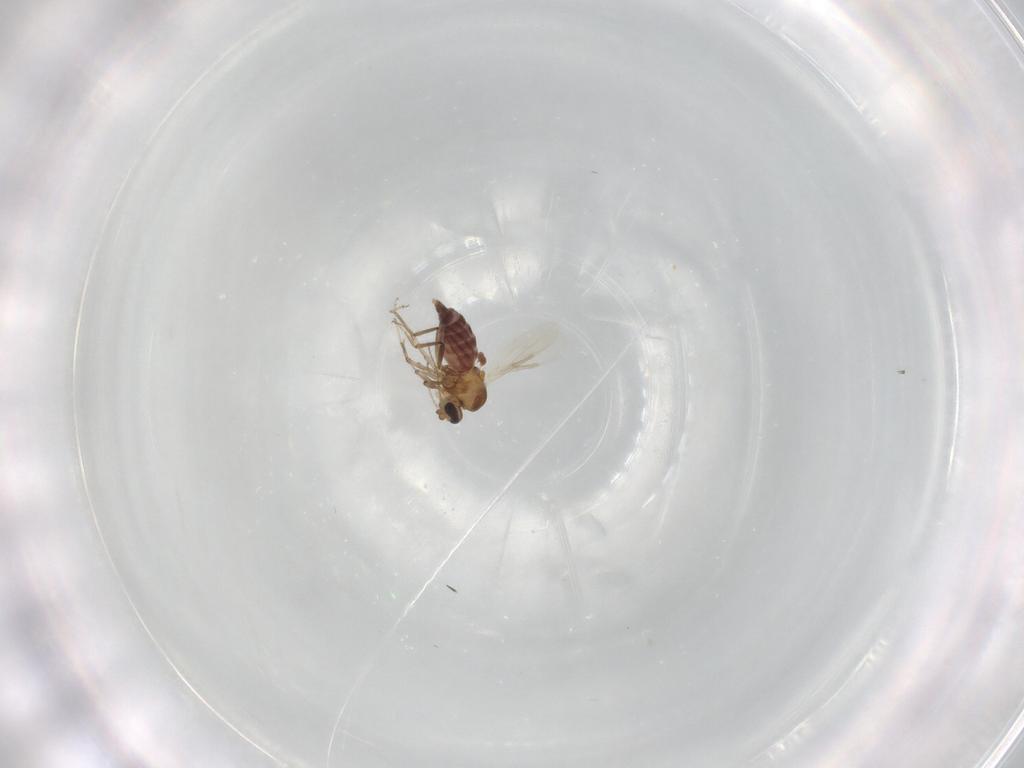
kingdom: Animalia
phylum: Arthropoda
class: Insecta
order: Diptera
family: Ceratopogonidae
